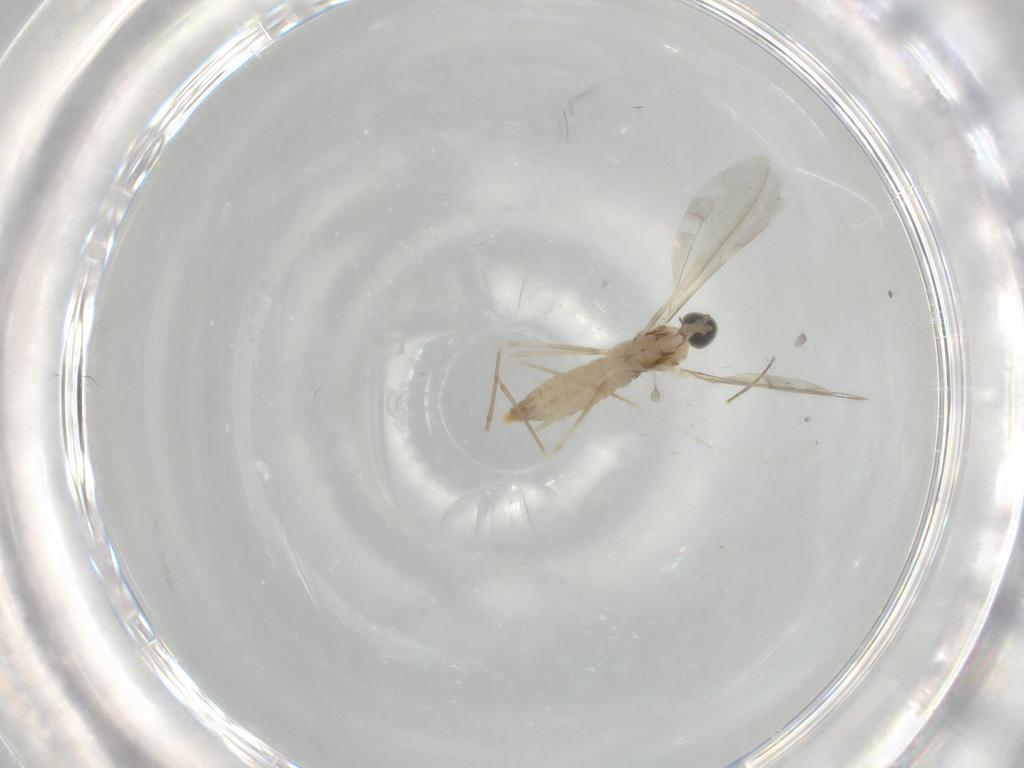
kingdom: Animalia
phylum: Arthropoda
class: Insecta
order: Diptera
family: Cecidomyiidae
